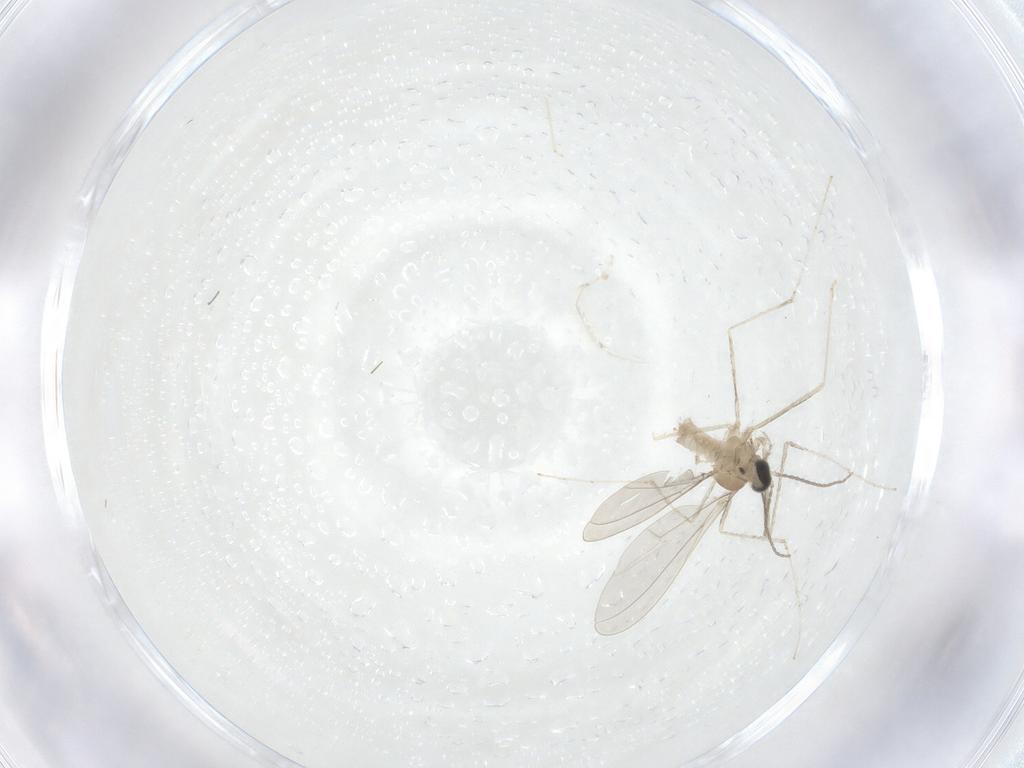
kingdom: Animalia
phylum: Arthropoda
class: Insecta
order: Diptera
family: Cecidomyiidae
